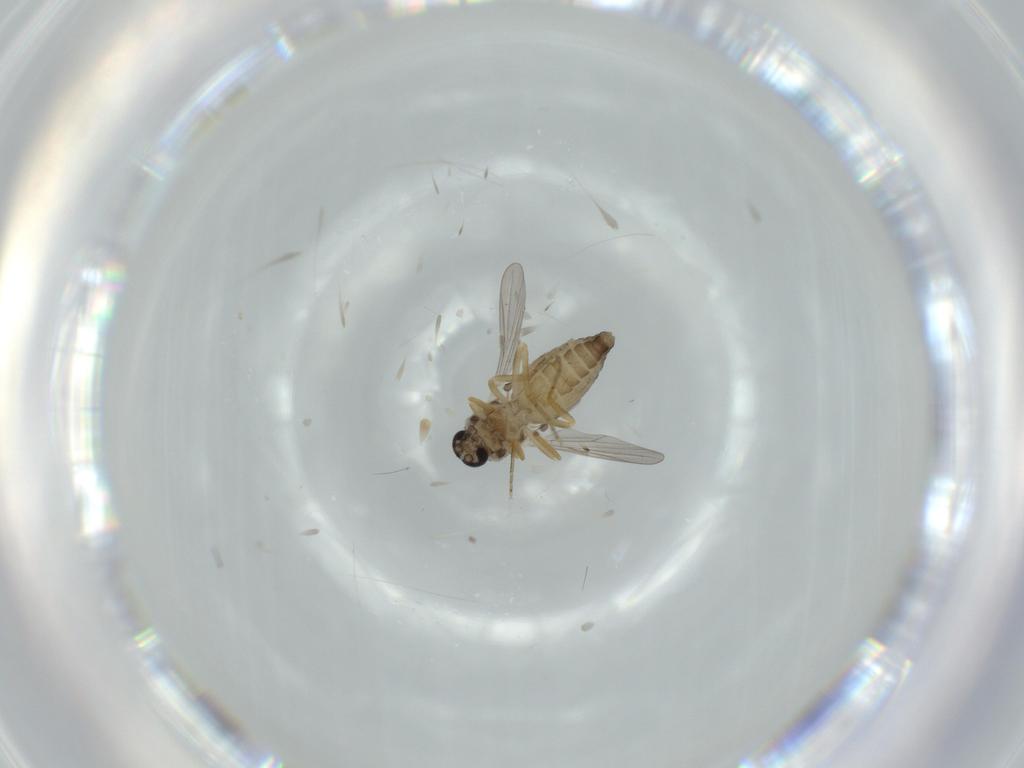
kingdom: Animalia
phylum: Arthropoda
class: Insecta
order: Diptera
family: Ceratopogonidae
